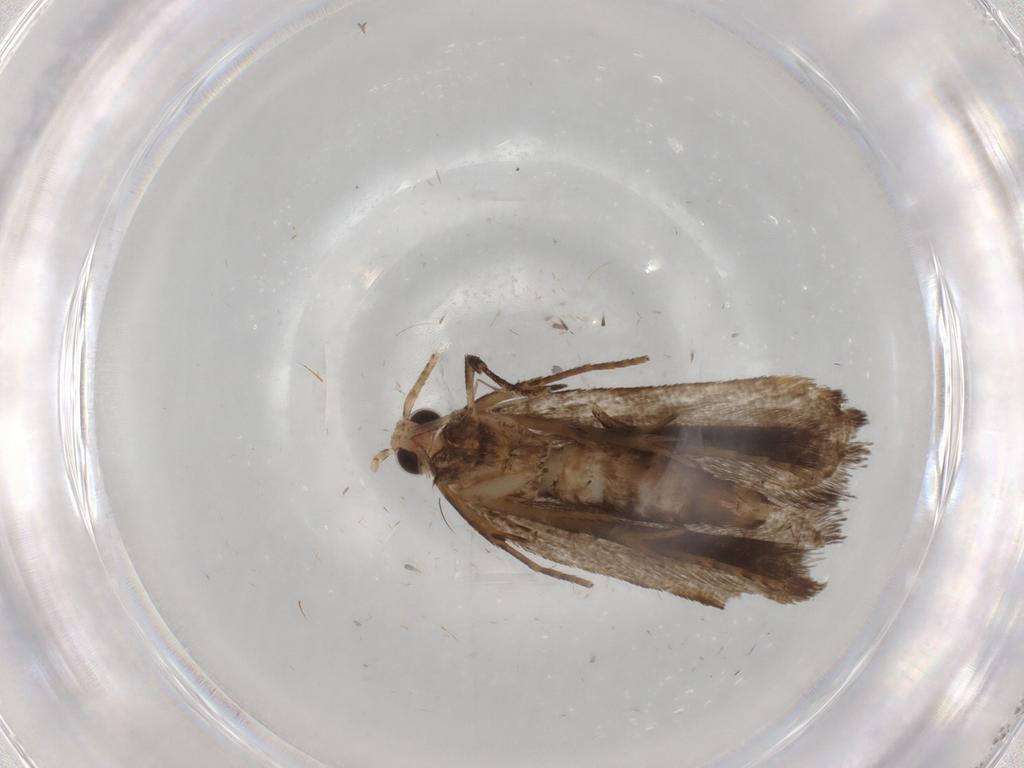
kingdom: Animalia
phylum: Arthropoda
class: Insecta
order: Lepidoptera
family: Gelechiidae
